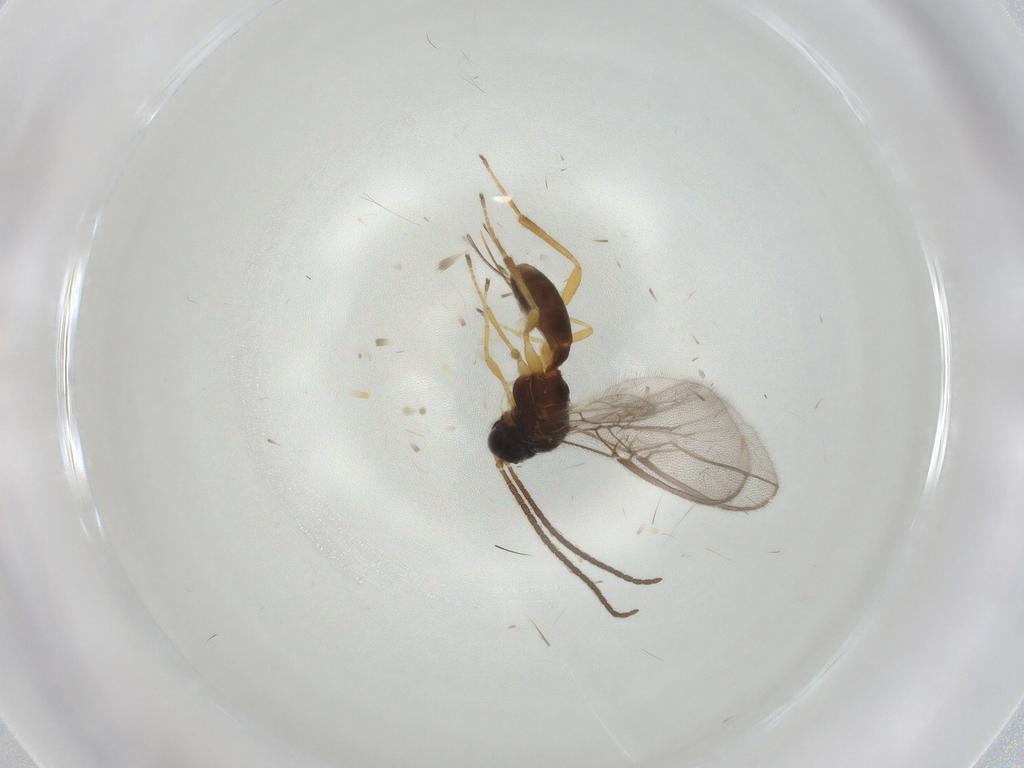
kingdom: Animalia
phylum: Arthropoda
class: Insecta
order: Hymenoptera
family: Braconidae
